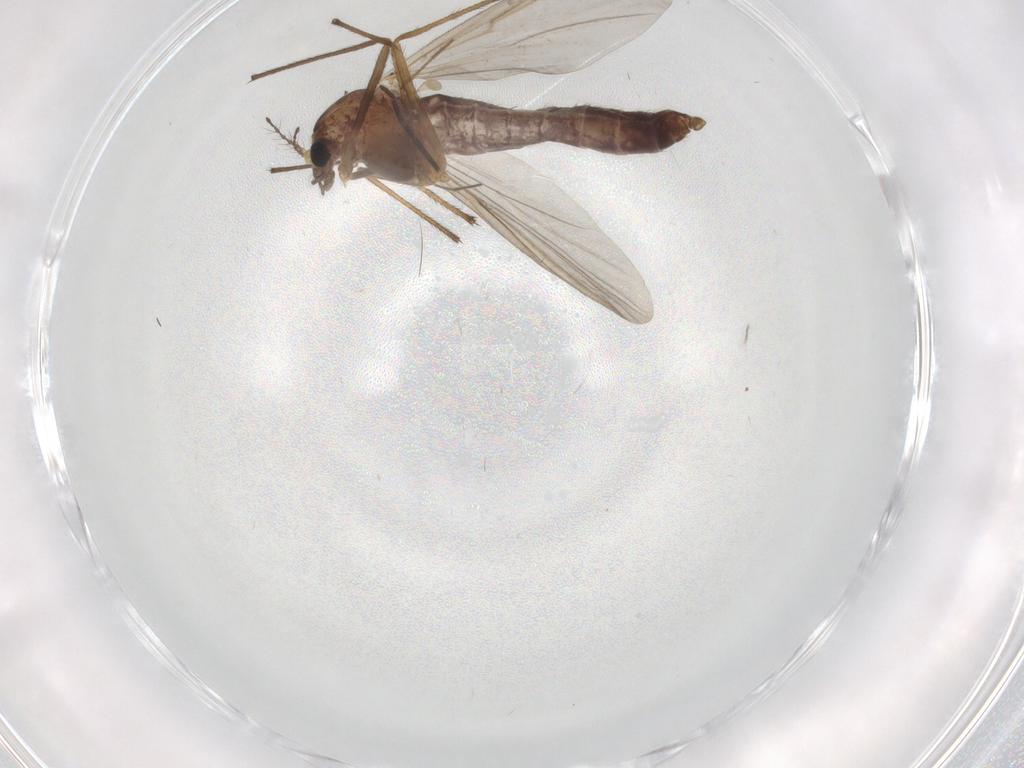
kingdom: Animalia
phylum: Arthropoda
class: Insecta
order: Diptera
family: Chironomidae
